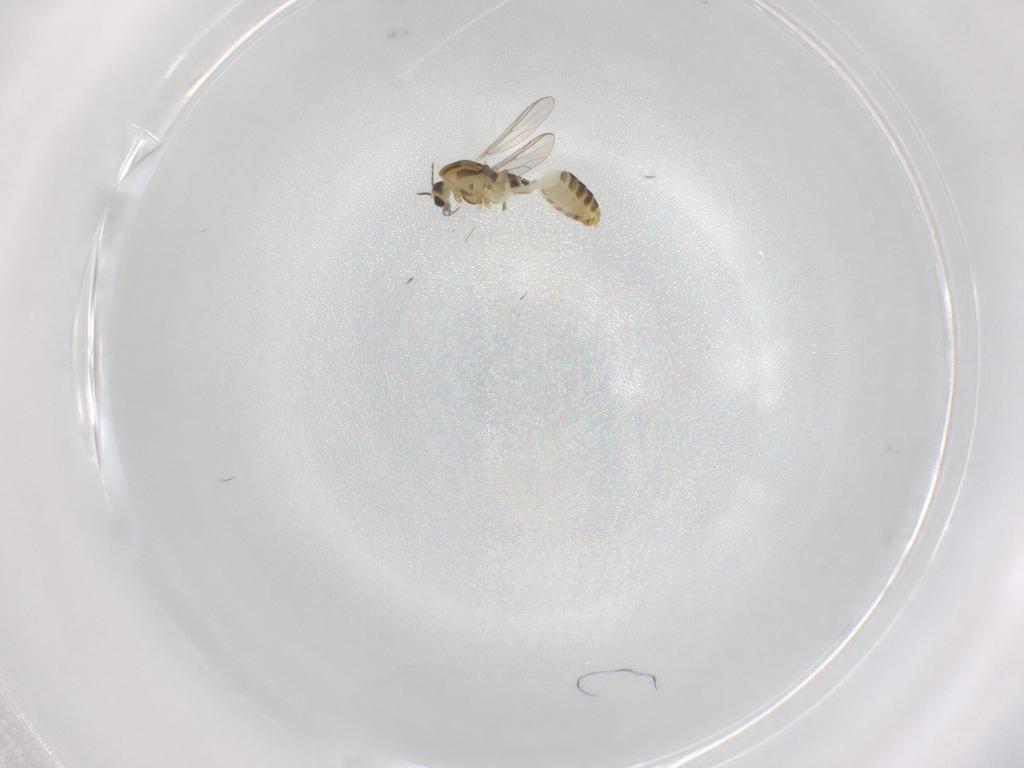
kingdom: Animalia
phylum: Arthropoda
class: Insecta
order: Diptera
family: Chironomidae
